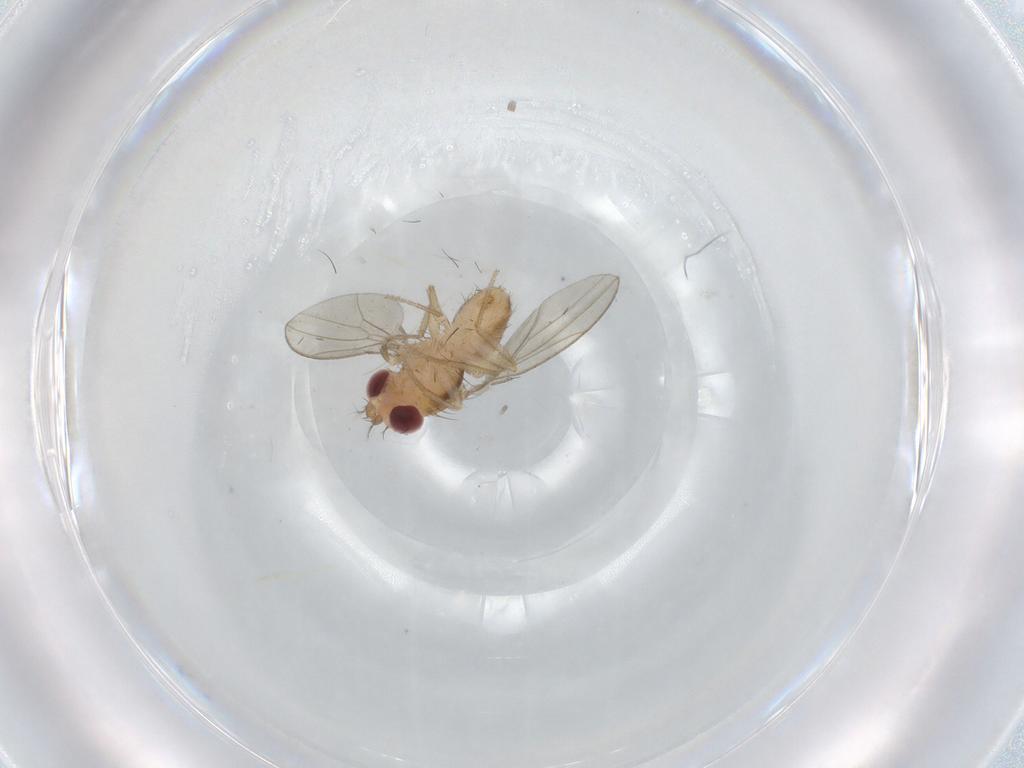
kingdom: Animalia
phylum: Arthropoda
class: Insecta
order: Diptera
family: Drosophilidae
